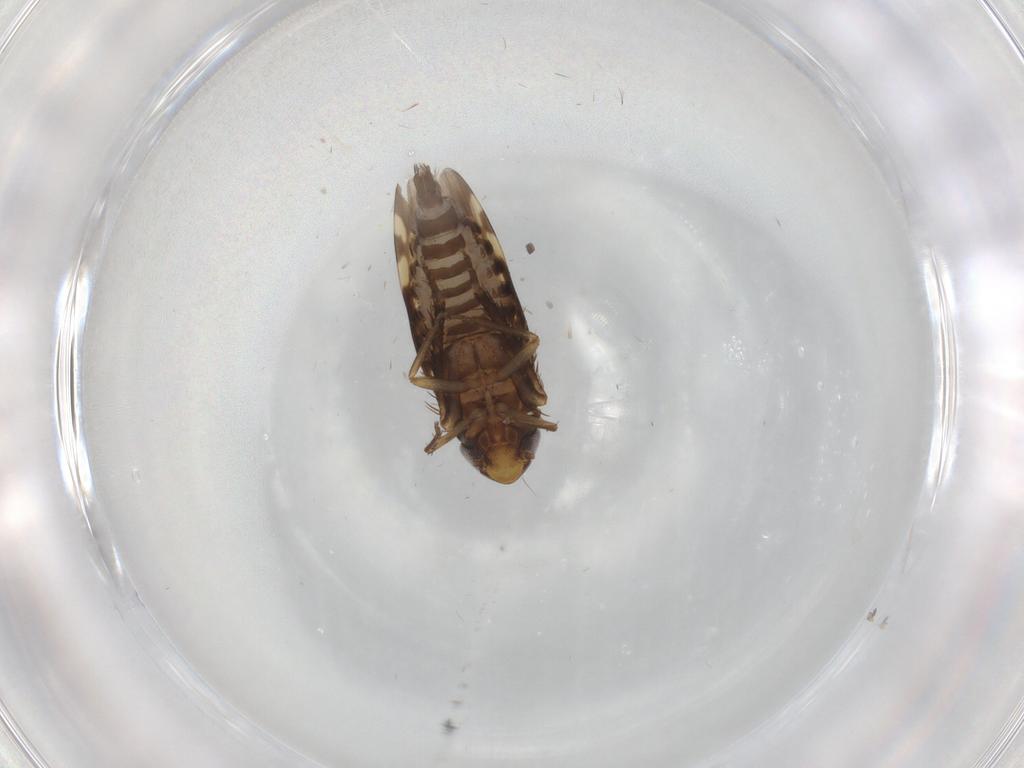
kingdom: Animalia
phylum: Arthropoda
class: Insecta
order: Hemiptera
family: Cicadellidae
